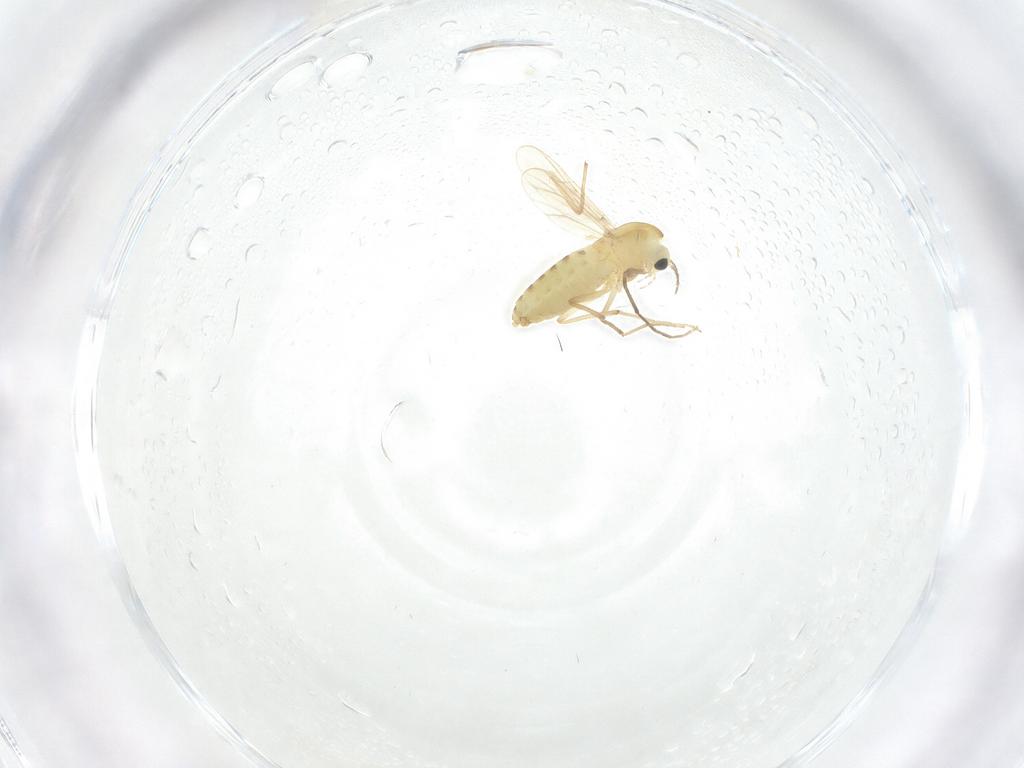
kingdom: Animalia
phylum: Arthropoda
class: Insecta
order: Diptera
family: Chironomidae
